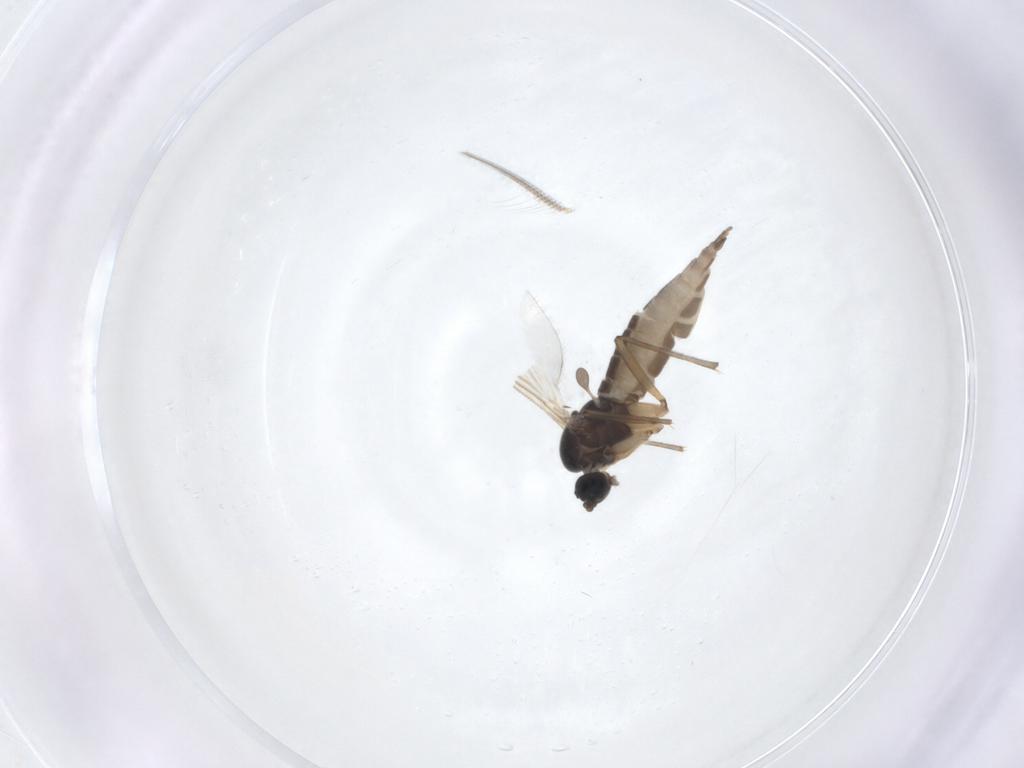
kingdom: Animalia
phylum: Arthropoda
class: Insecta
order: Diptera
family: Sciaridae
